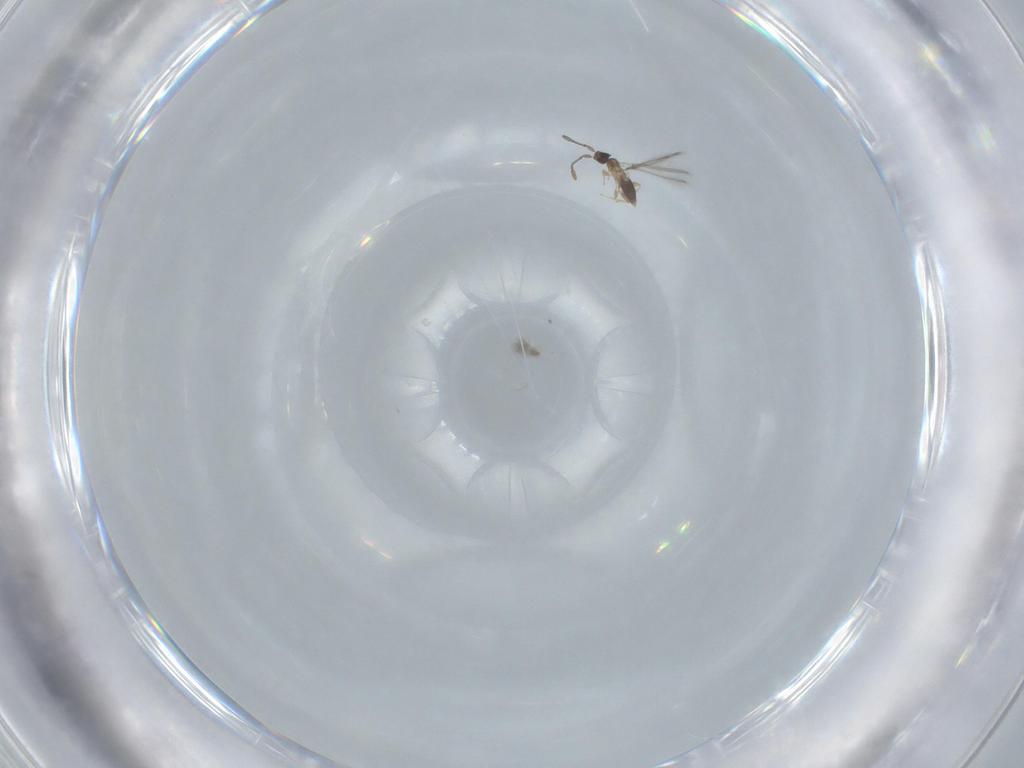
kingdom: Animalia
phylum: Arthropoda
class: Insecta
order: Hymenoptera
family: Mymaridae
